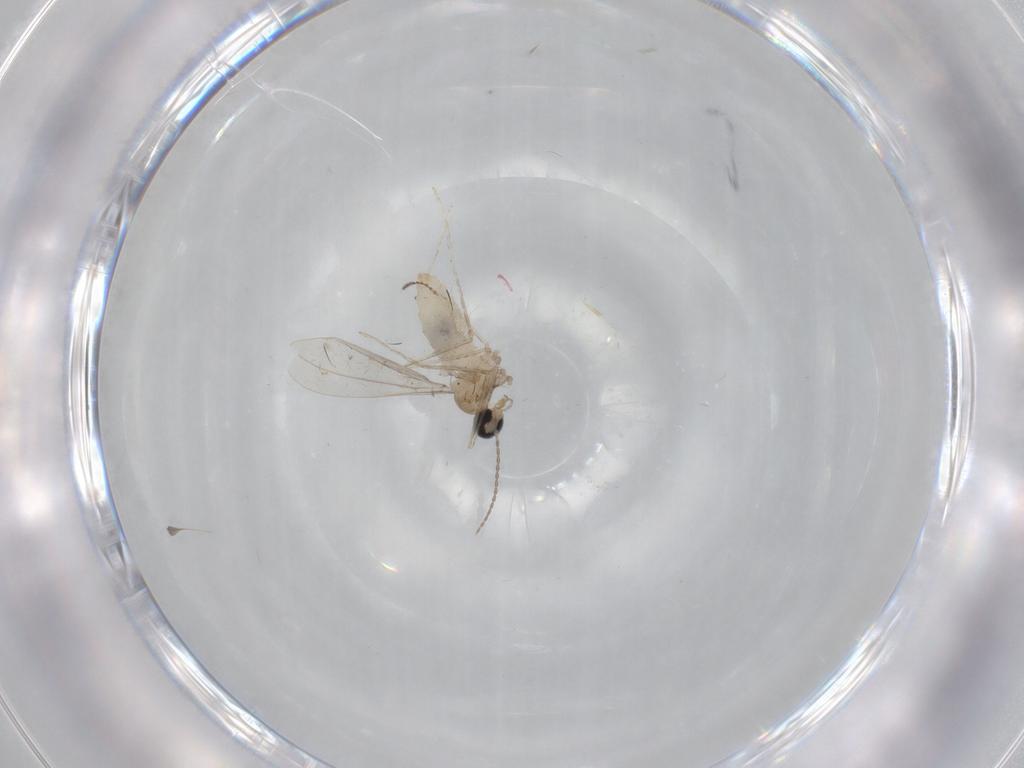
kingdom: Animalia
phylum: Arthropoda
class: Insecta
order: Diptera
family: Cecidomyiidae
